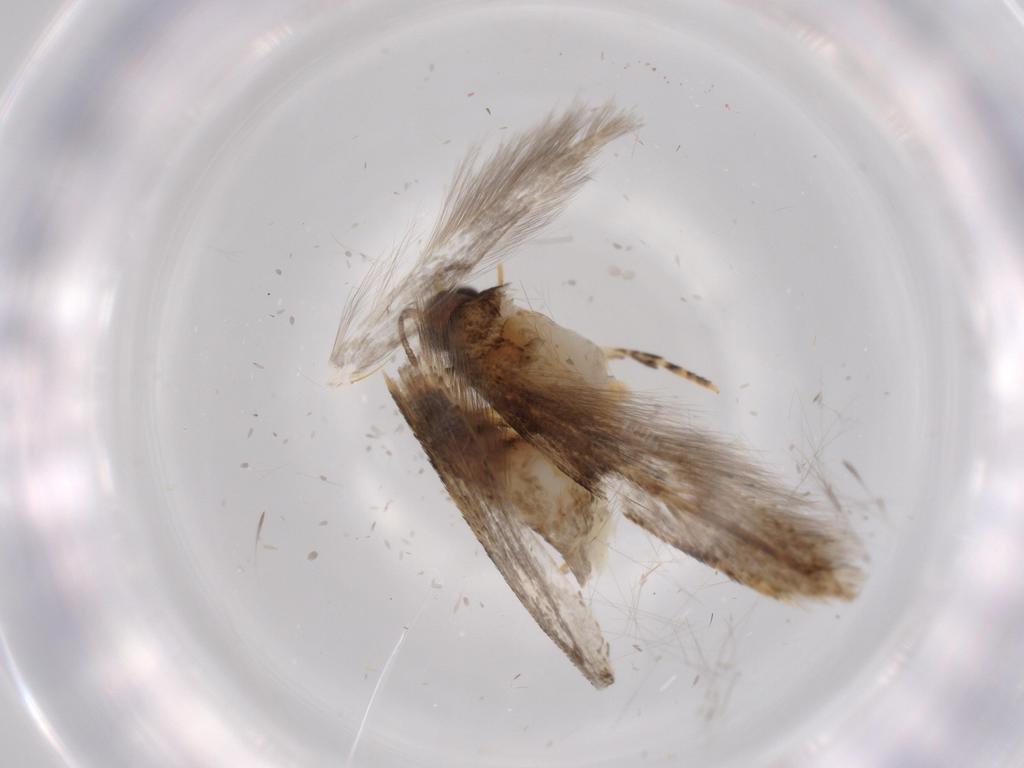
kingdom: Animalia
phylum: Arthropoda
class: Insecta
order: Lepidoptera
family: Tineidae
